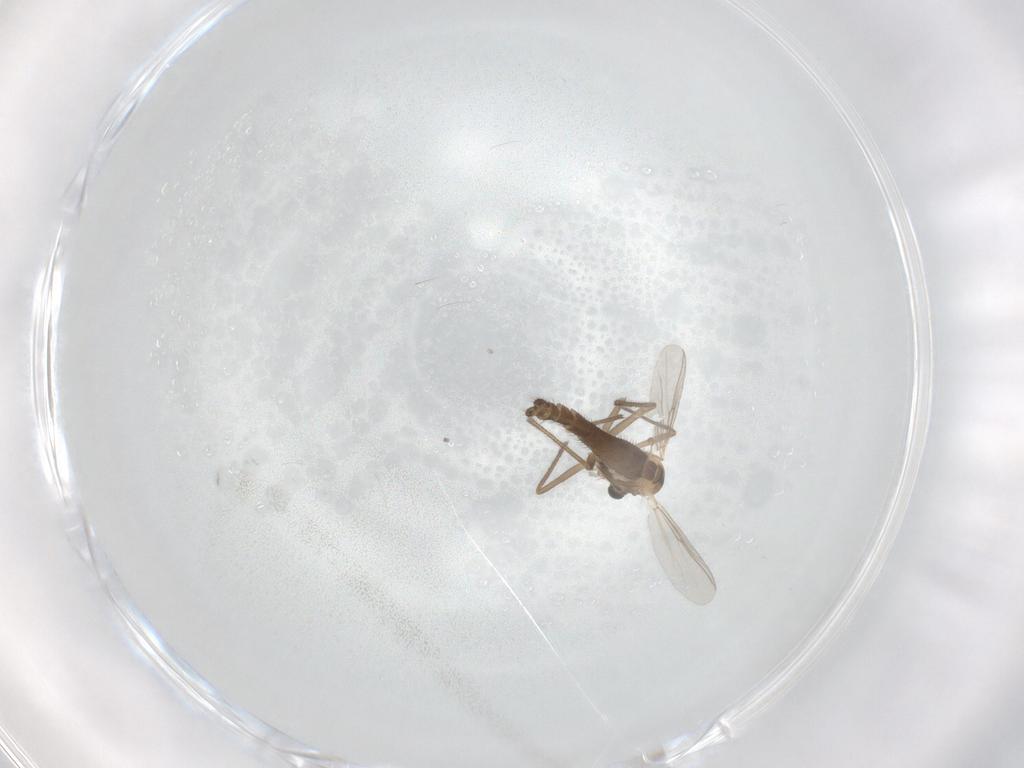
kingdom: Animalia
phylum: Arthropoda
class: Insecta
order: Diptera
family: Chironomidae
